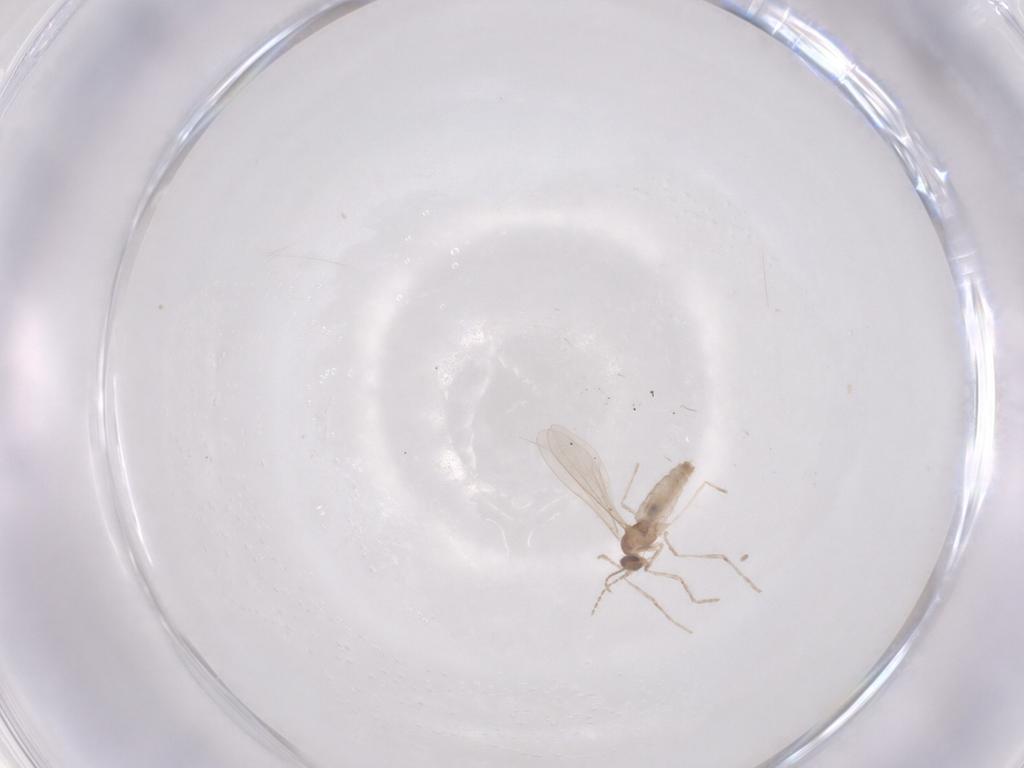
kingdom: Animalia
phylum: Arthropoda
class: Insecta
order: Diptera
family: Cecidomyiidae
